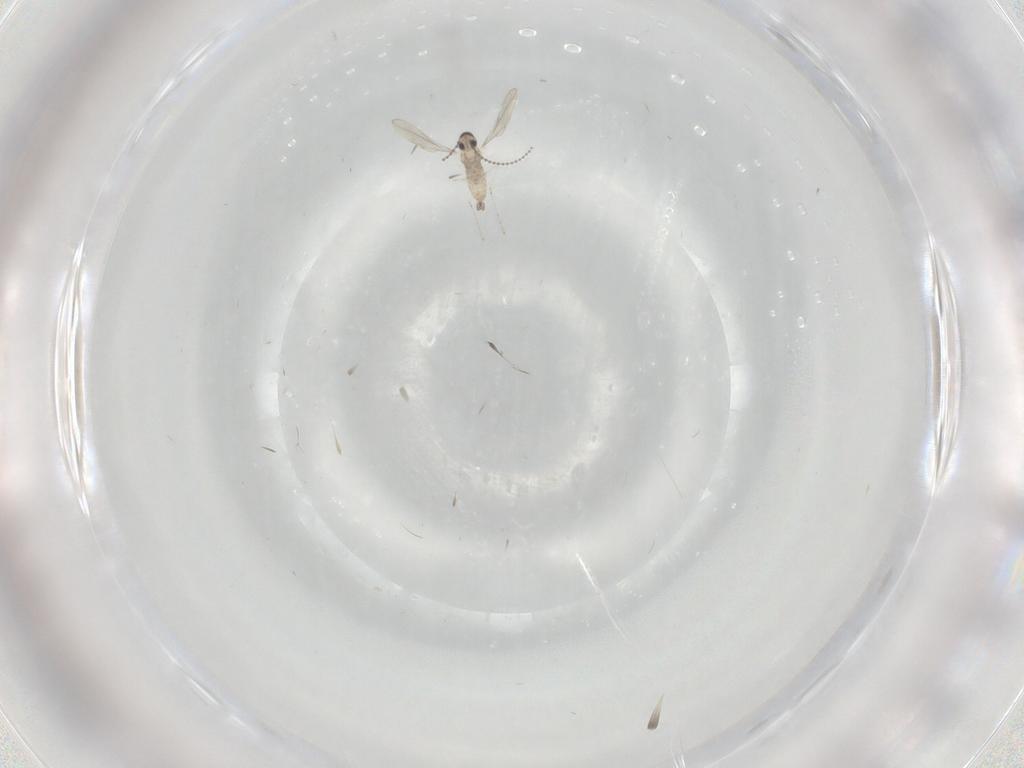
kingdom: Animalia
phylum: Arthropoda
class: Insecta
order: Diptera
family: Cecidomyiidae
